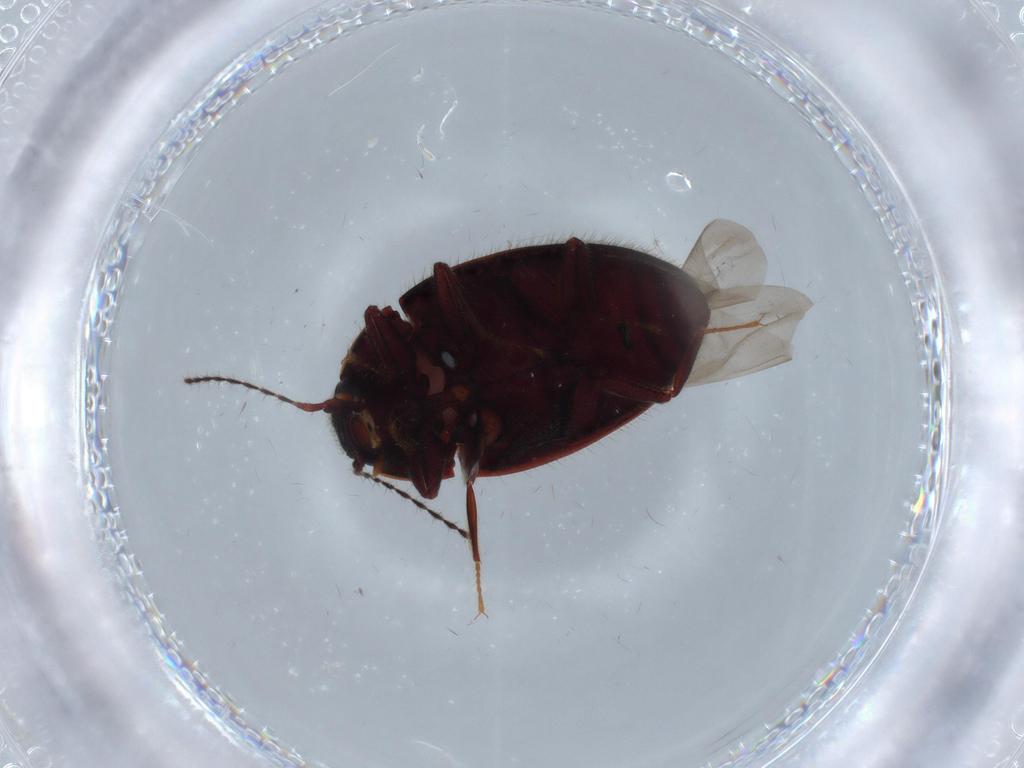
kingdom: Animalia
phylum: Arthropoda
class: Insecta
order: Coleoptera
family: Limnichidae
